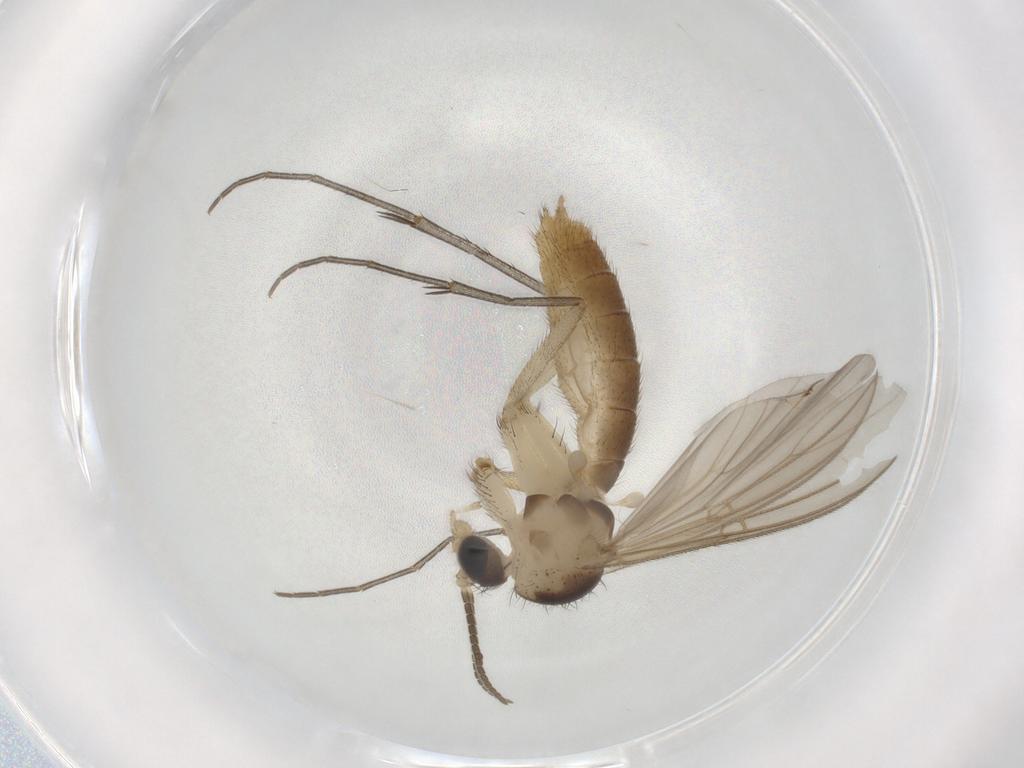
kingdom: Animalia
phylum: Arthropoda
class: Insecta
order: Diptera
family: Mycetophilidae
